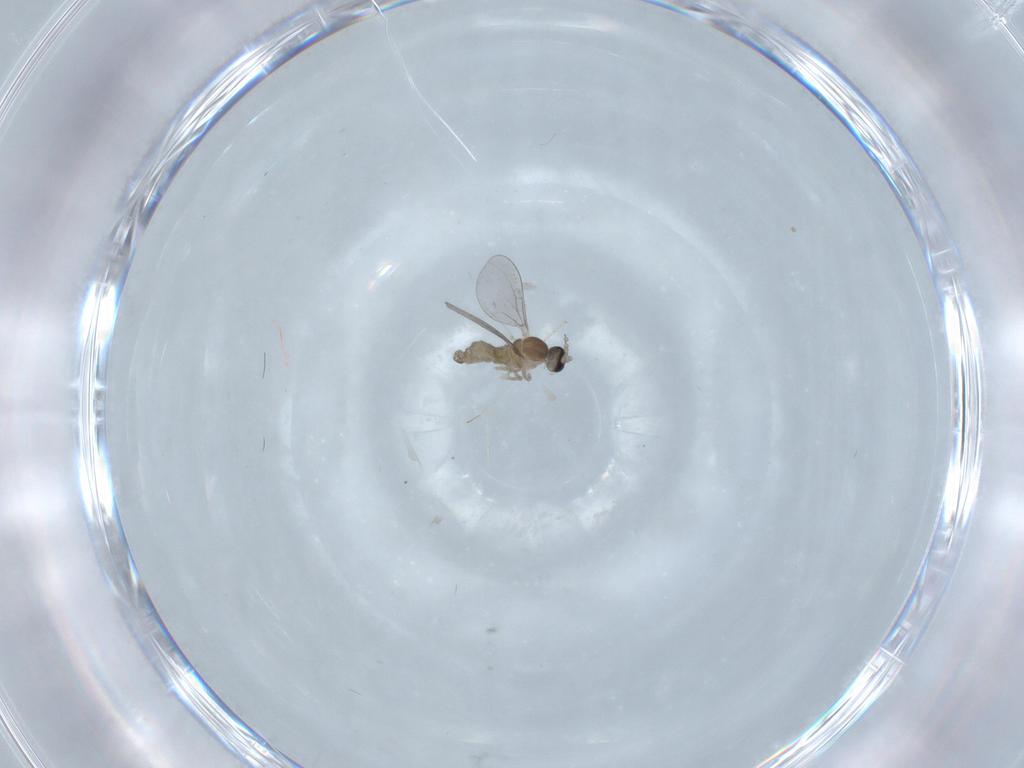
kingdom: Animalia
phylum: Arthropoda
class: Insecta
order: Diptera
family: Cecidomyiidae
